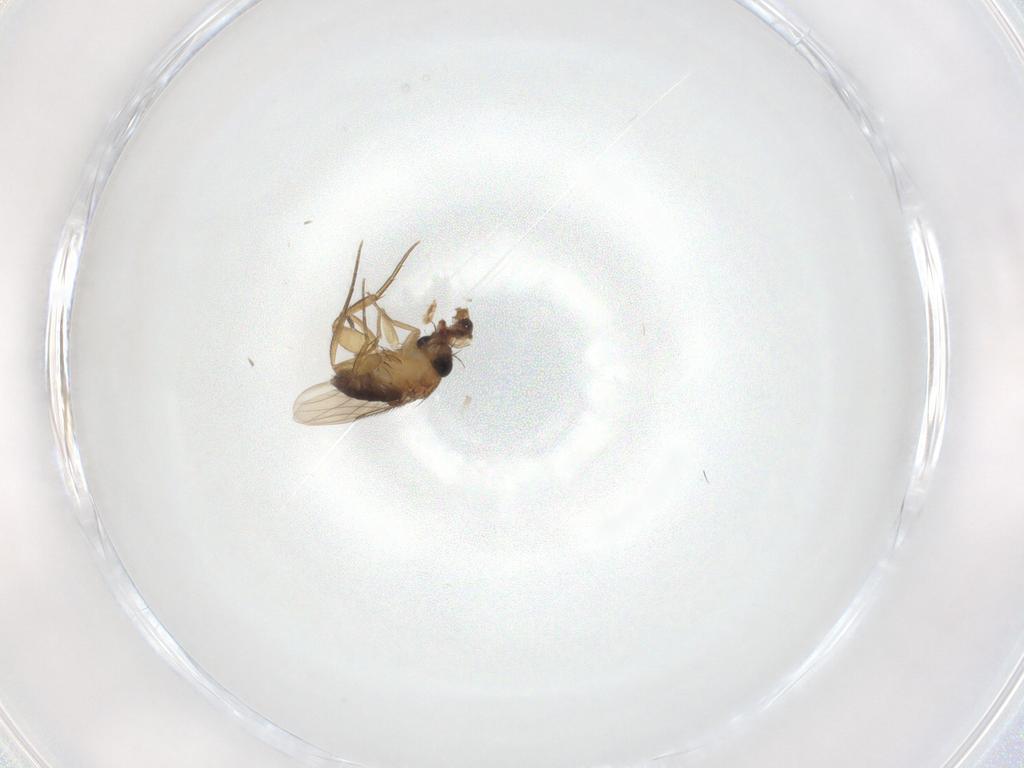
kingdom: Animalia
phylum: Arthropoda
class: Insecta
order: Diptera
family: Phoridae
